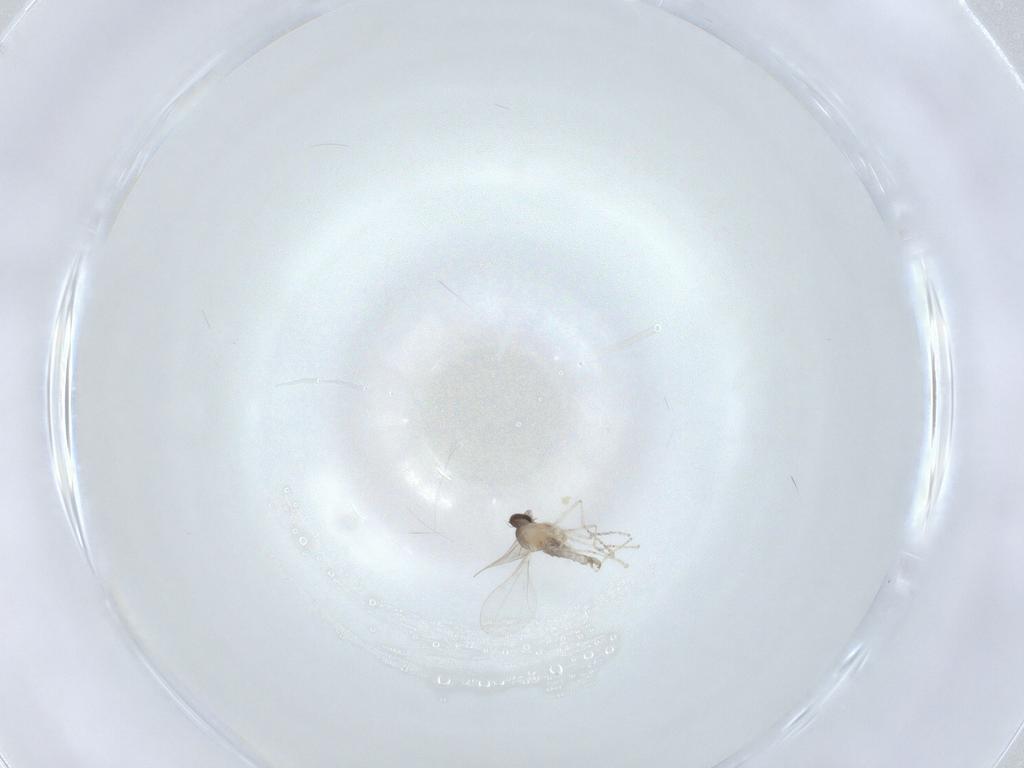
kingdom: Animalia
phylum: Arthropoda
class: Insecta
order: Diptera
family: Cecidomyiidae
